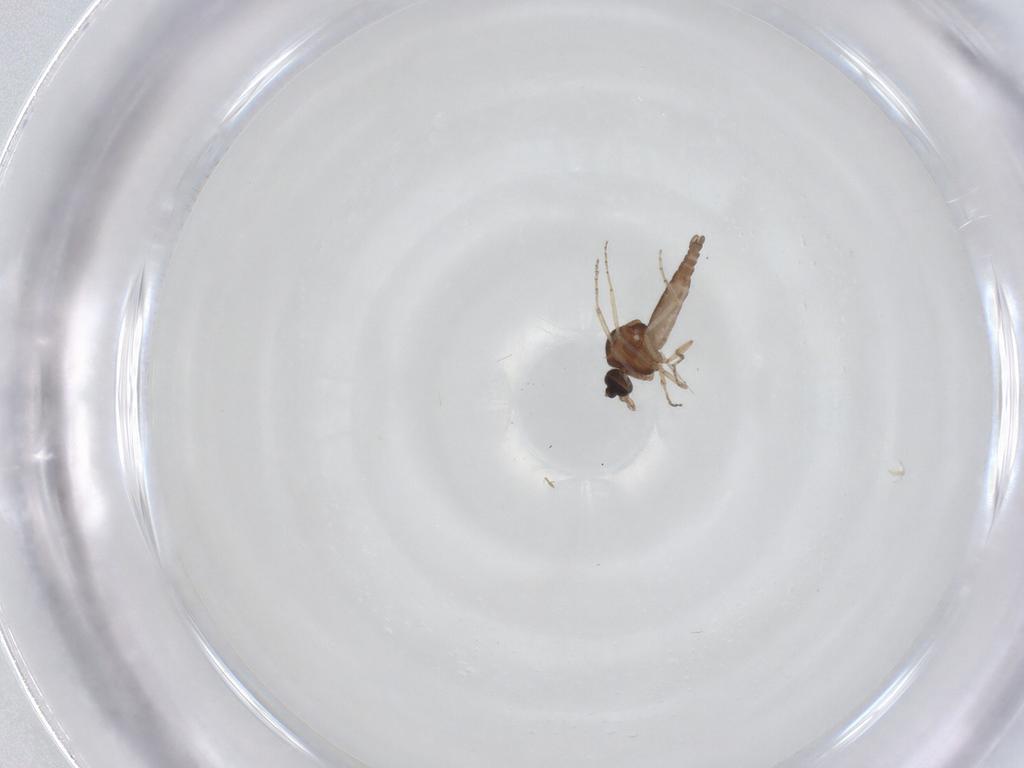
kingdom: Animalia
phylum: Arthropoda
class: Insecta
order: Diptera
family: Ceratopogonidae
